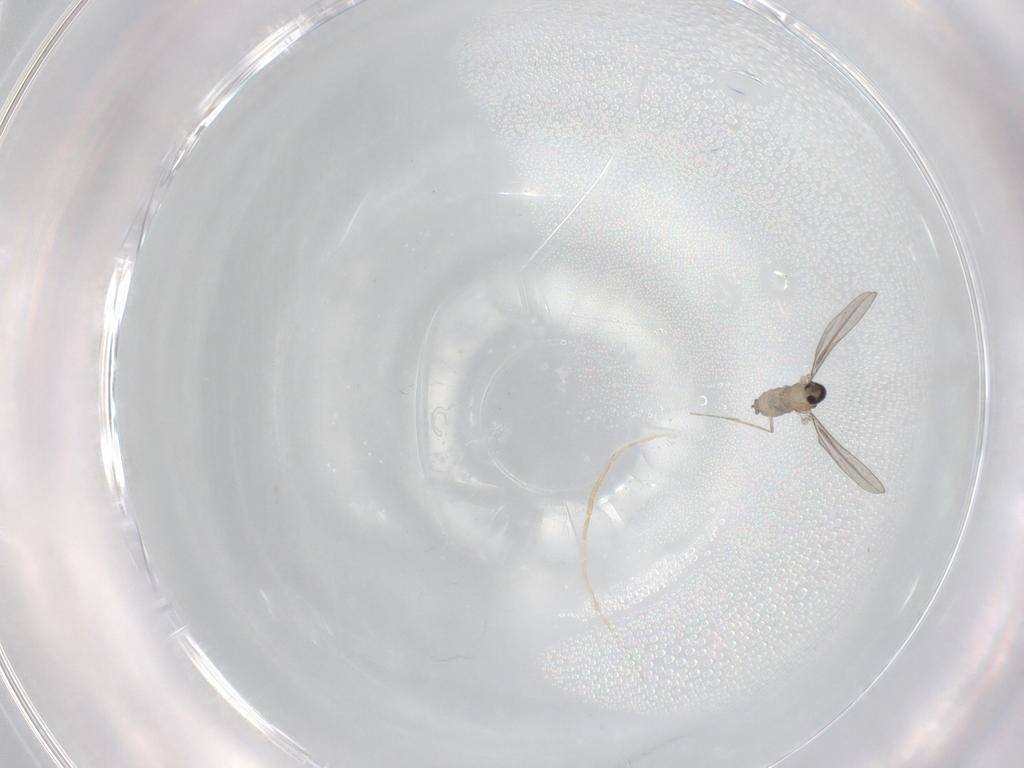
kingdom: Animalia
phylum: Arthropoda
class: Insecta
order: Diptera
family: Cecidomyiidae
